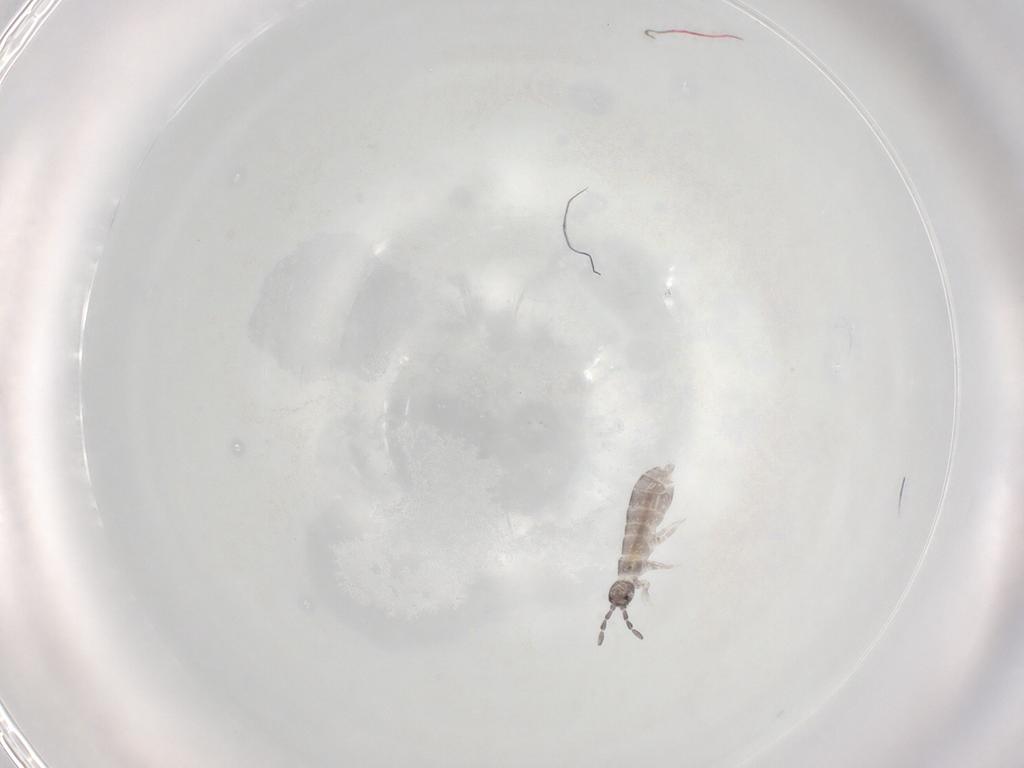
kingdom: Animalia
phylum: Arthropoda
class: Collembola
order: Entomobryomorpha
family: Isotomidae
